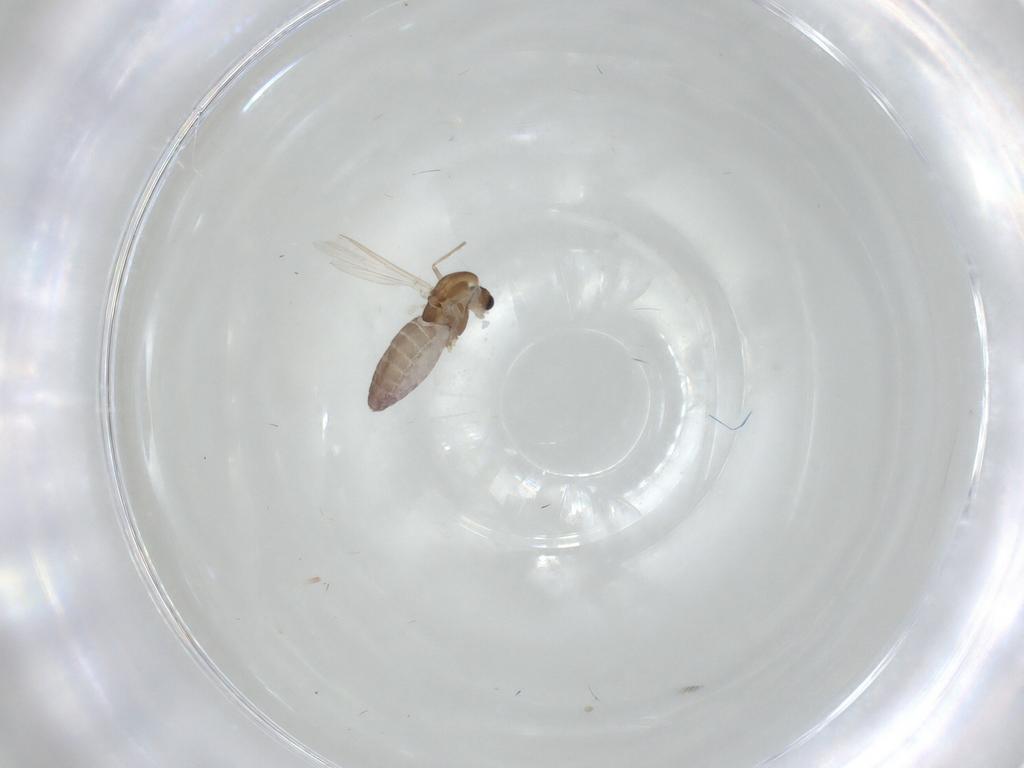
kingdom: Animalia
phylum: Arthropoda
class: Insecta
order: Diptera
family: Chironomidae
